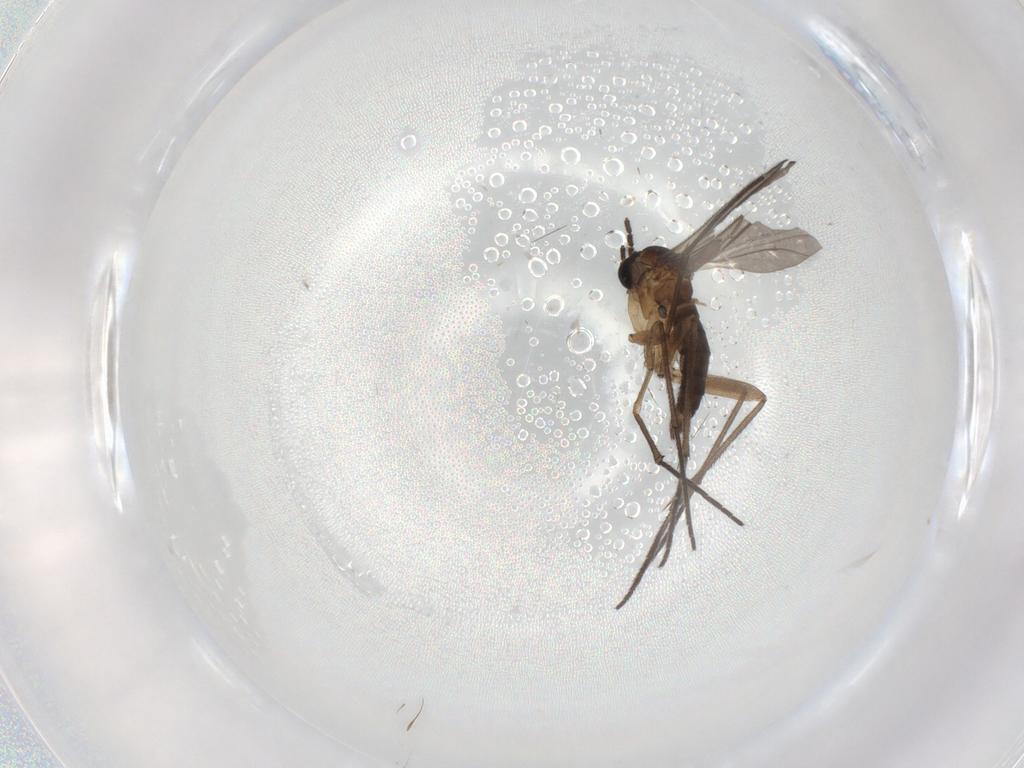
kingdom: Animalia
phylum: Arthropoda
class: Insecta
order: Diptera
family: Sciaridae
